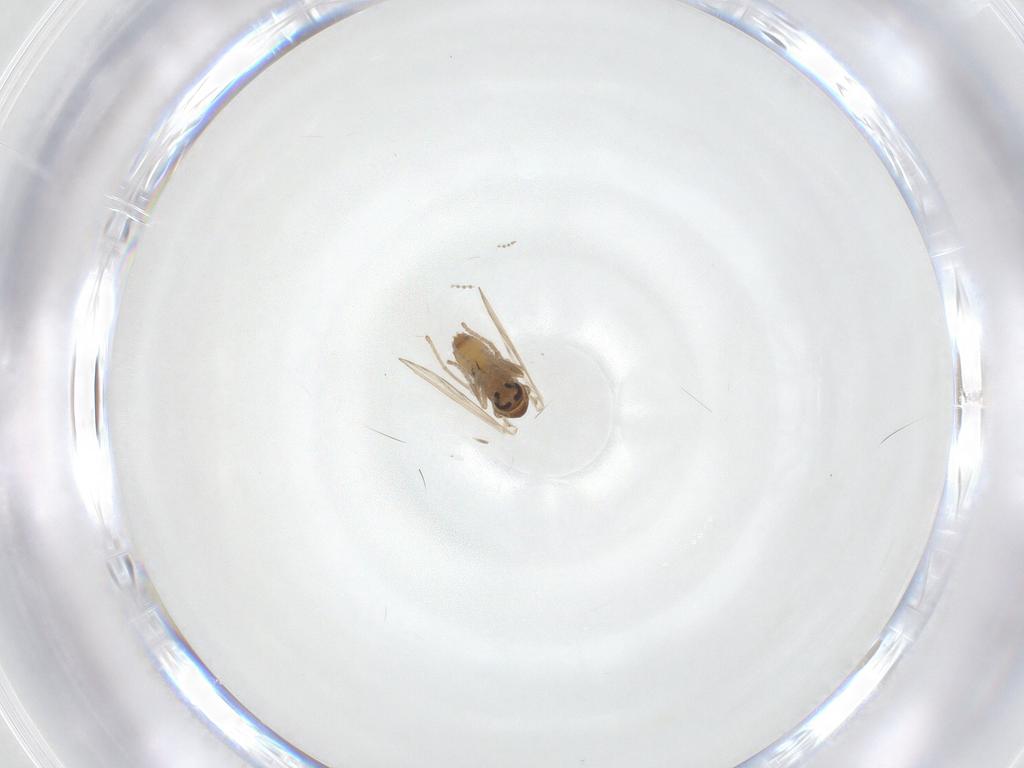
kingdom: Animalia
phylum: Arthropoda
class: Insecta
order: Diptera
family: Psychodidae
